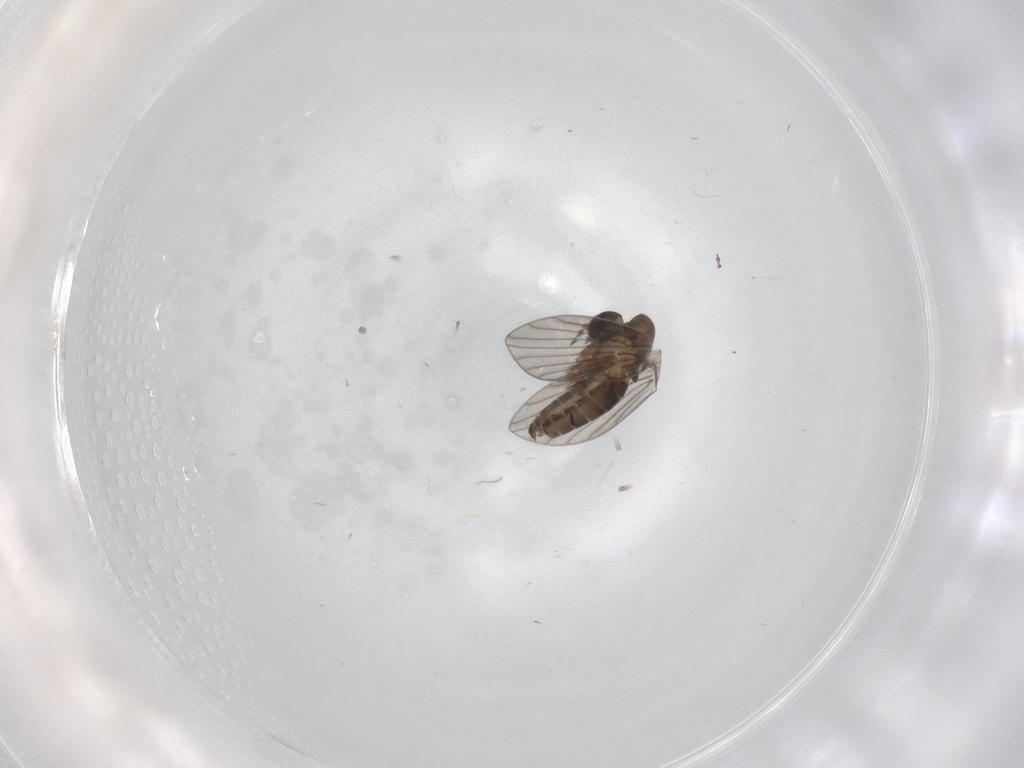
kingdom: Animalia
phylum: Arthropoda
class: Insecta
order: Diptera
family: Psychodidae
